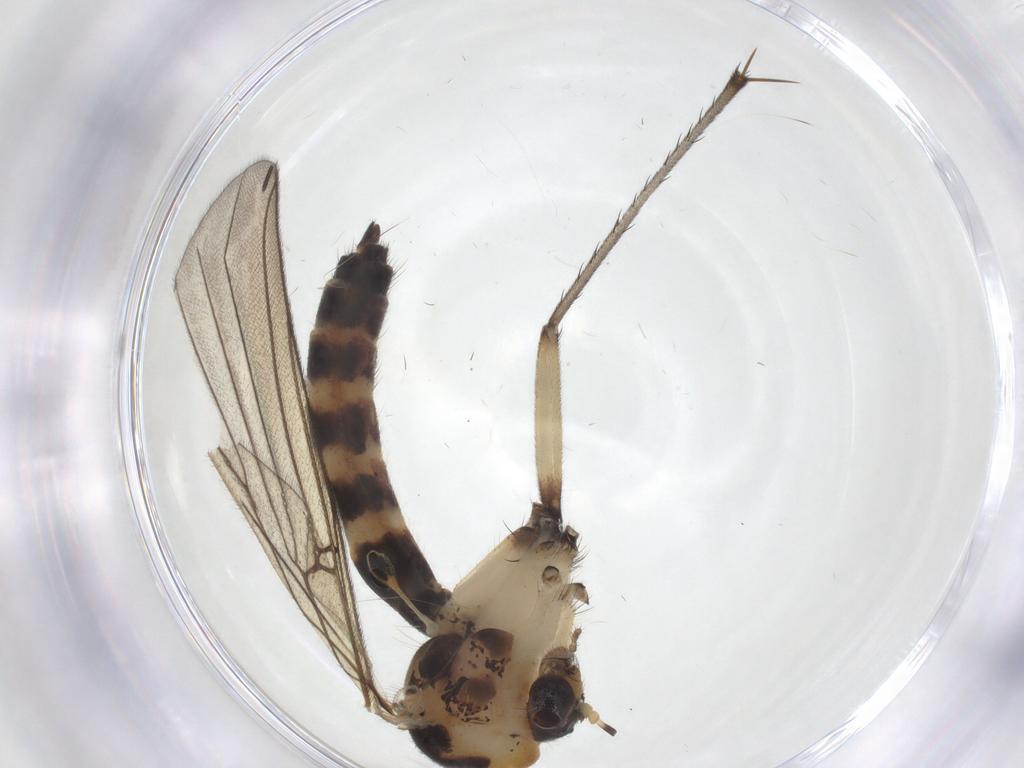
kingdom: Animalia
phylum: Arthropoda
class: Insecta
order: Diptera
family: Mycetophilidae
